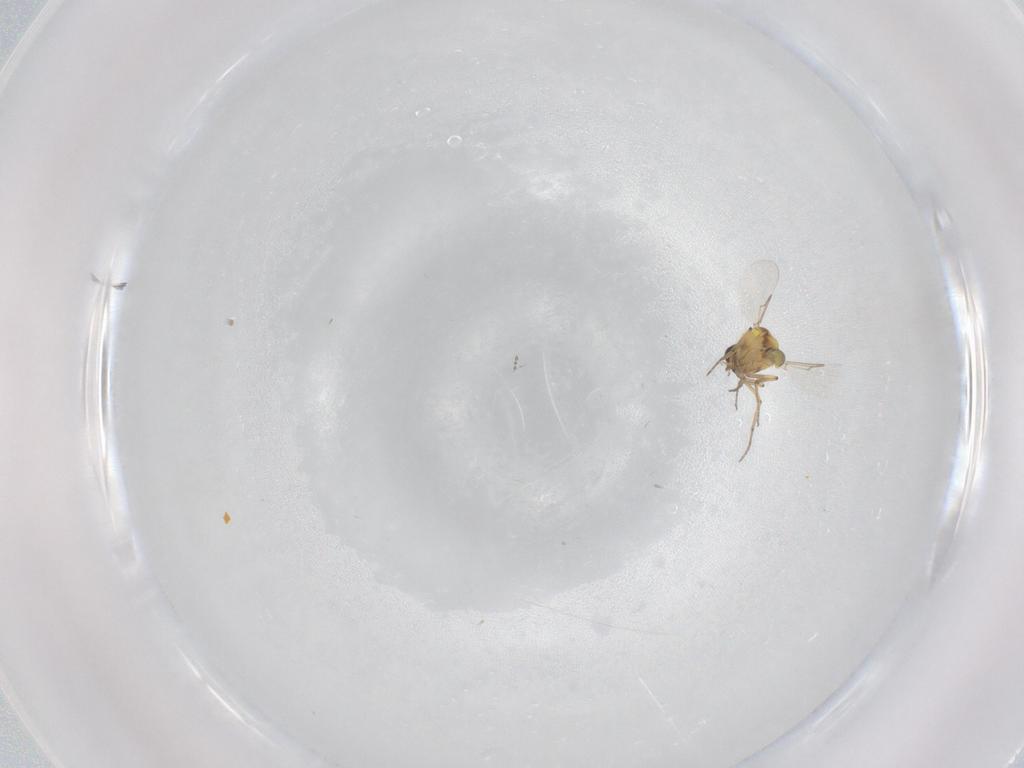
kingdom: Animalia
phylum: Arthropoda
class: Insecta
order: Diptera
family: Ceratopogonidae
